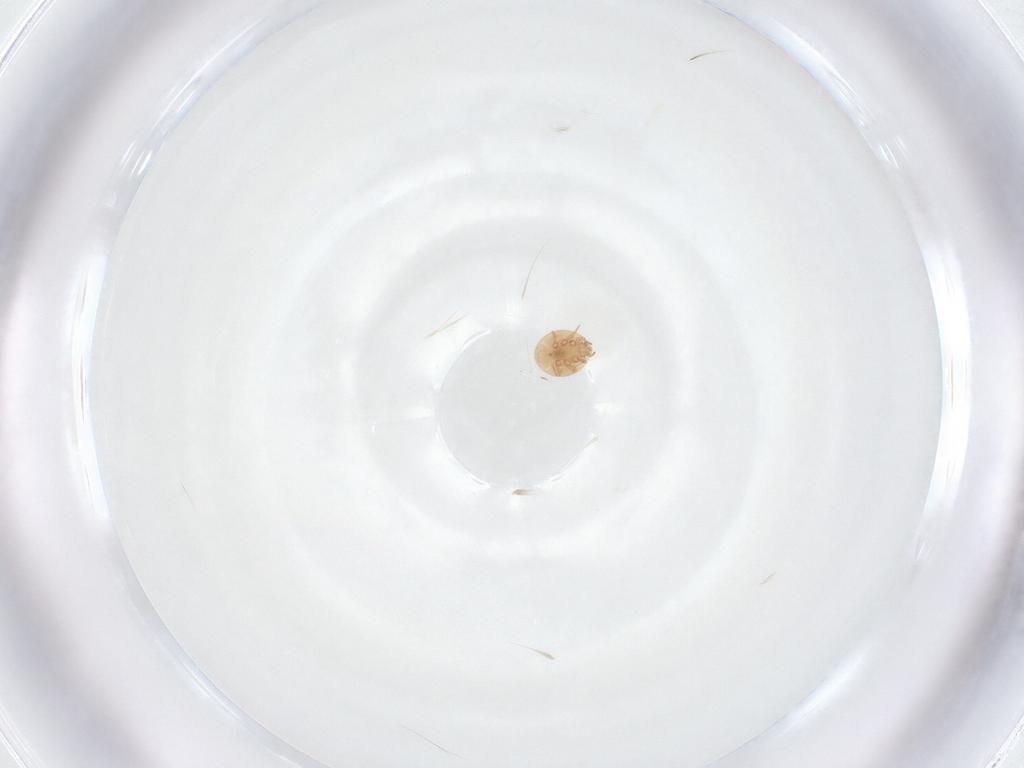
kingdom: Animalia
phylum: Arthropoda
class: Arachnida
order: Mesostigmata
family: Trematuridae
